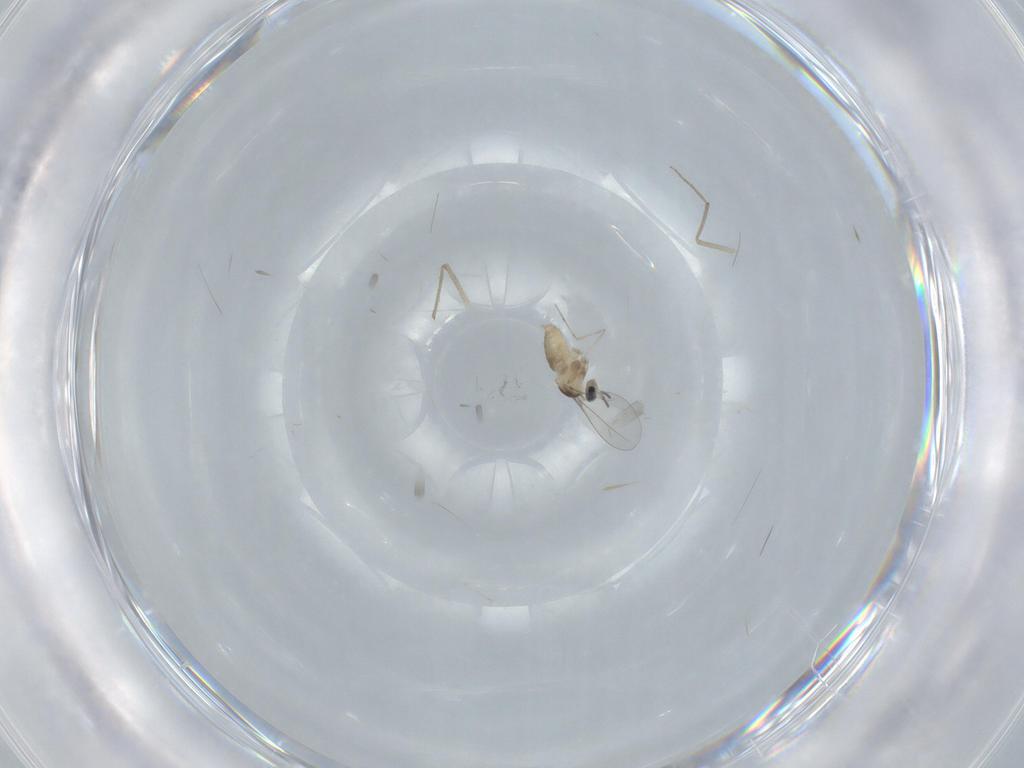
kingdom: Animalia
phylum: Arthropoda
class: Insecta
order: Diptera
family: Cecidomyiidae
